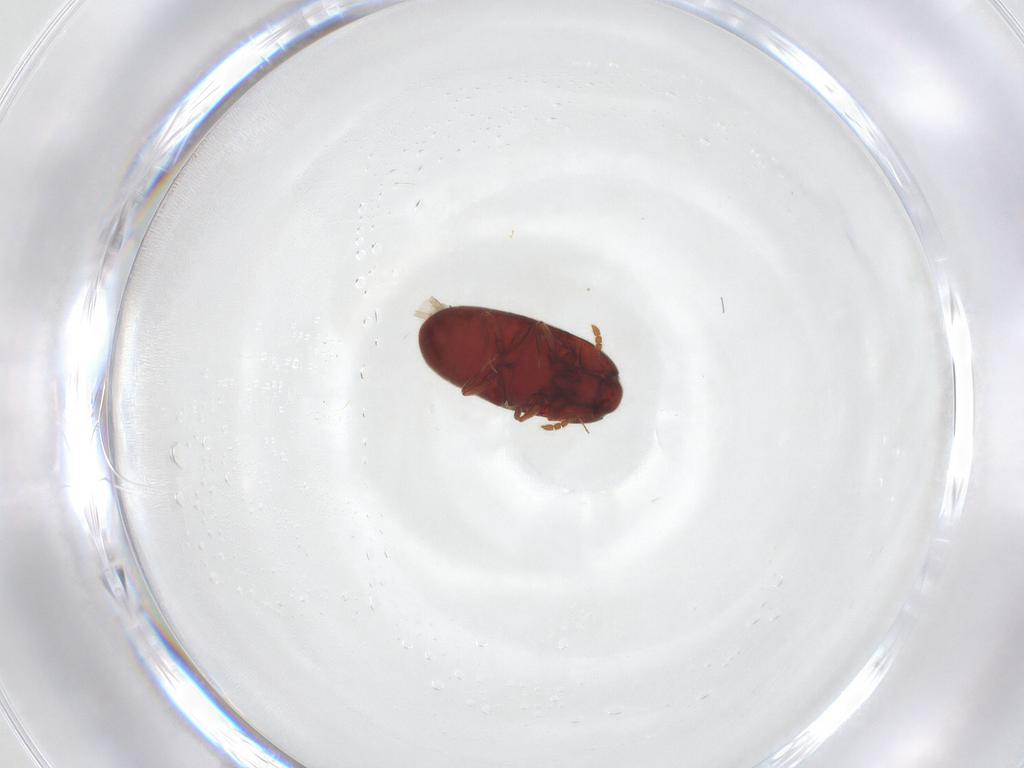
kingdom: Animalia
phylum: Arthropoda
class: Insecta
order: Coleoptera
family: Throscidae
